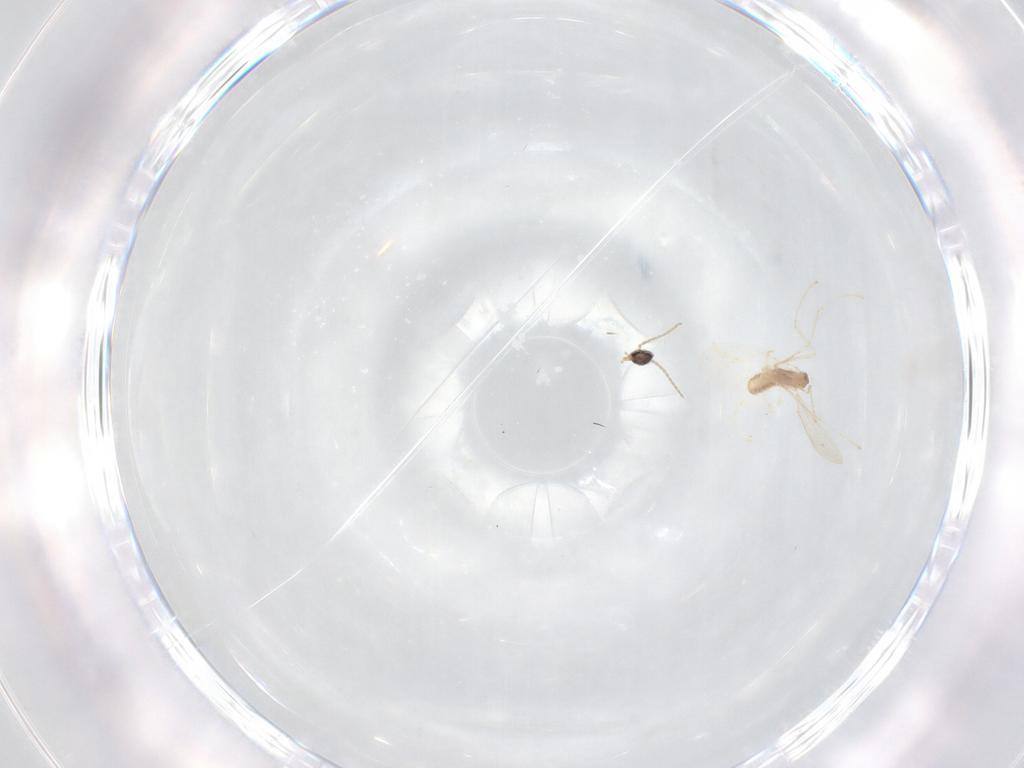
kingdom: Animalia
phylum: Arthropoda
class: Insecta
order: Diptera
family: Cecidomyiidae
